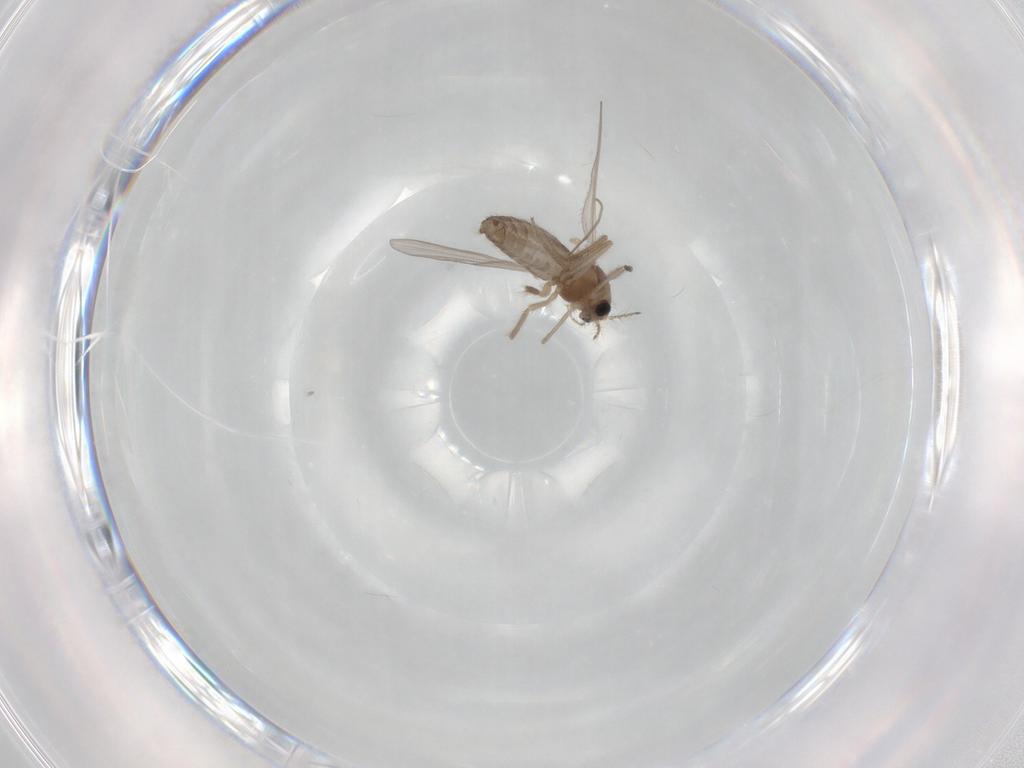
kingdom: Animalia
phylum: Arthropoda
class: Insecta
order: Diptera
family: Chironomidae
